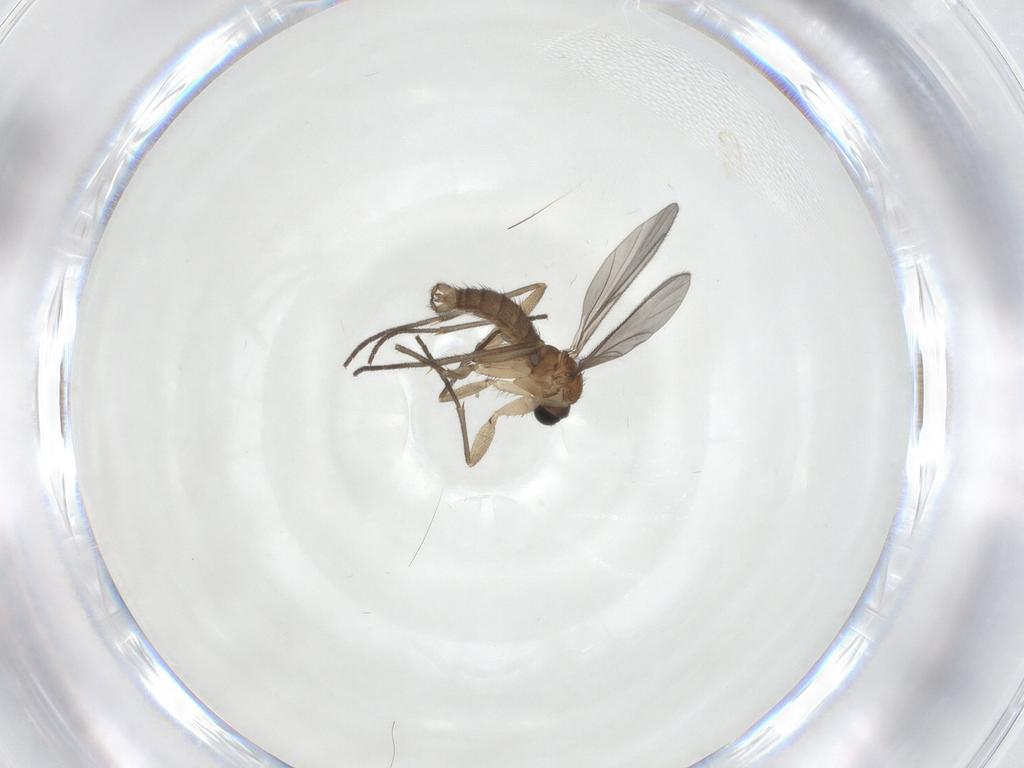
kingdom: Animalia
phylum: Arthropoda
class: Insecta
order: Diptera
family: Sciaridae
